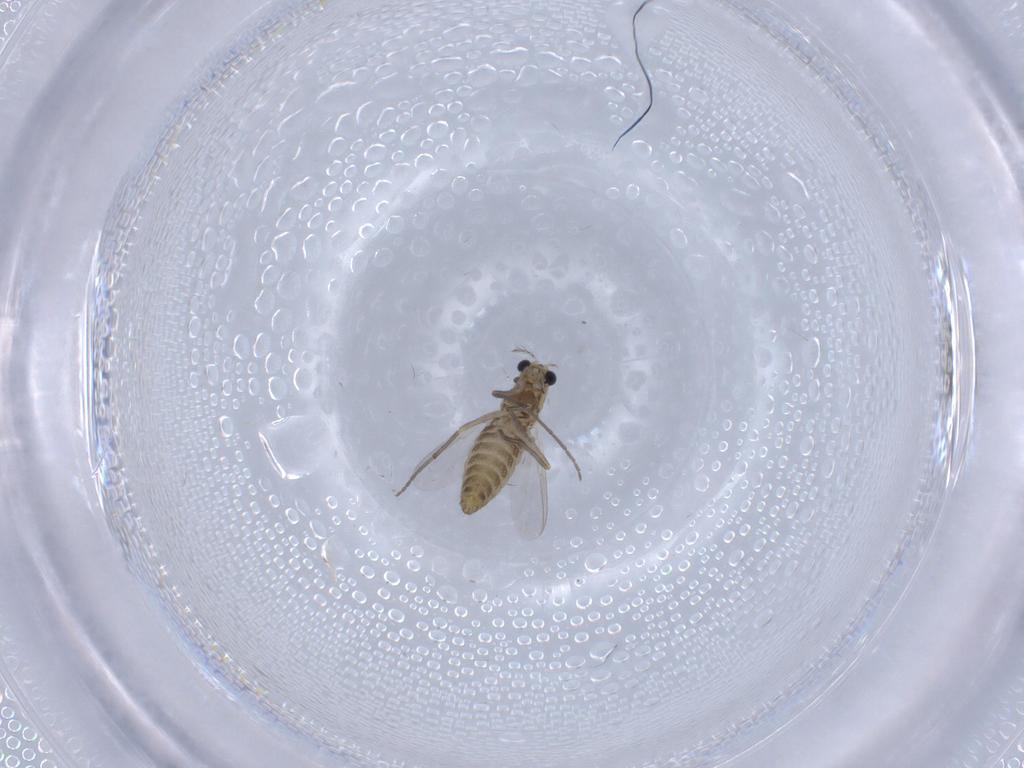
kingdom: Animalia
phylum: Arthropoda
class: Insecta
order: Diptera
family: Chironomidae
